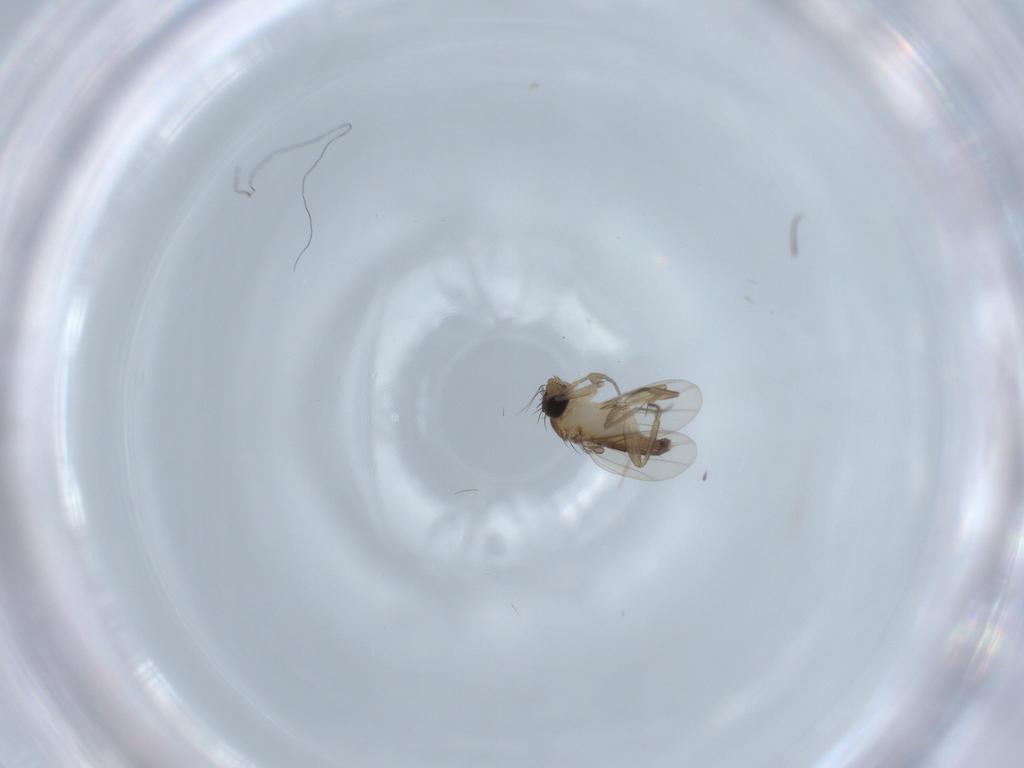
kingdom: Animalia
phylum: Arthropoda
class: Insecta
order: Diptera
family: Phoridae
